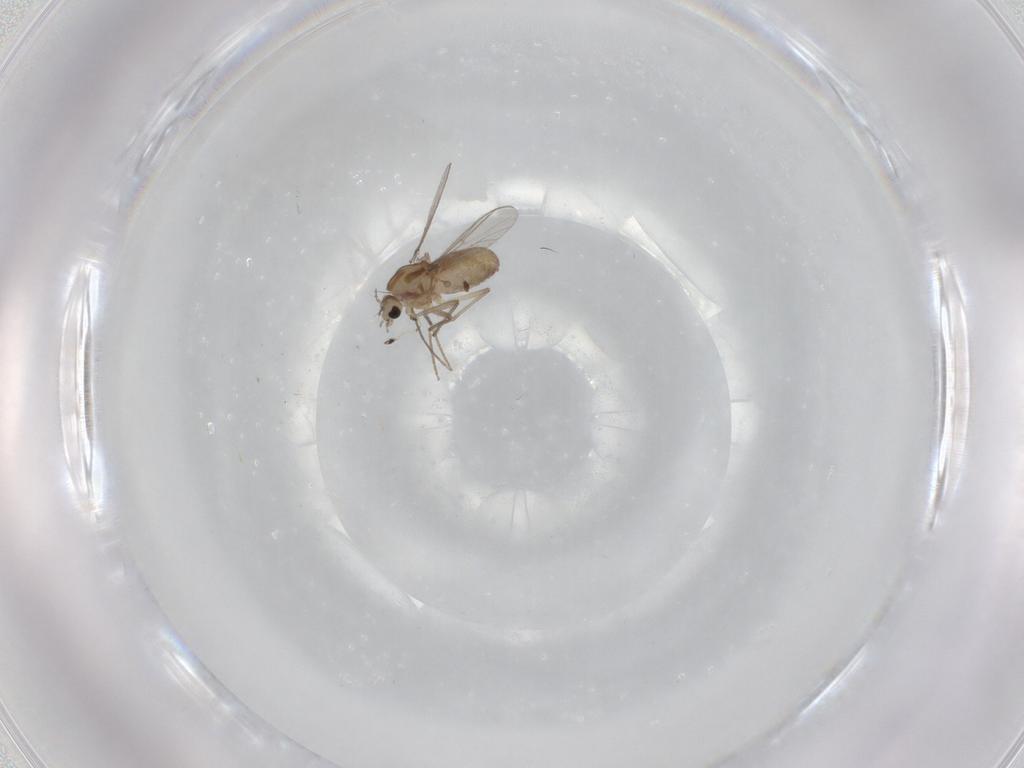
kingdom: Animalia
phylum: Arthropoda
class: Insecta
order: Diptera
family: Chironomidae
